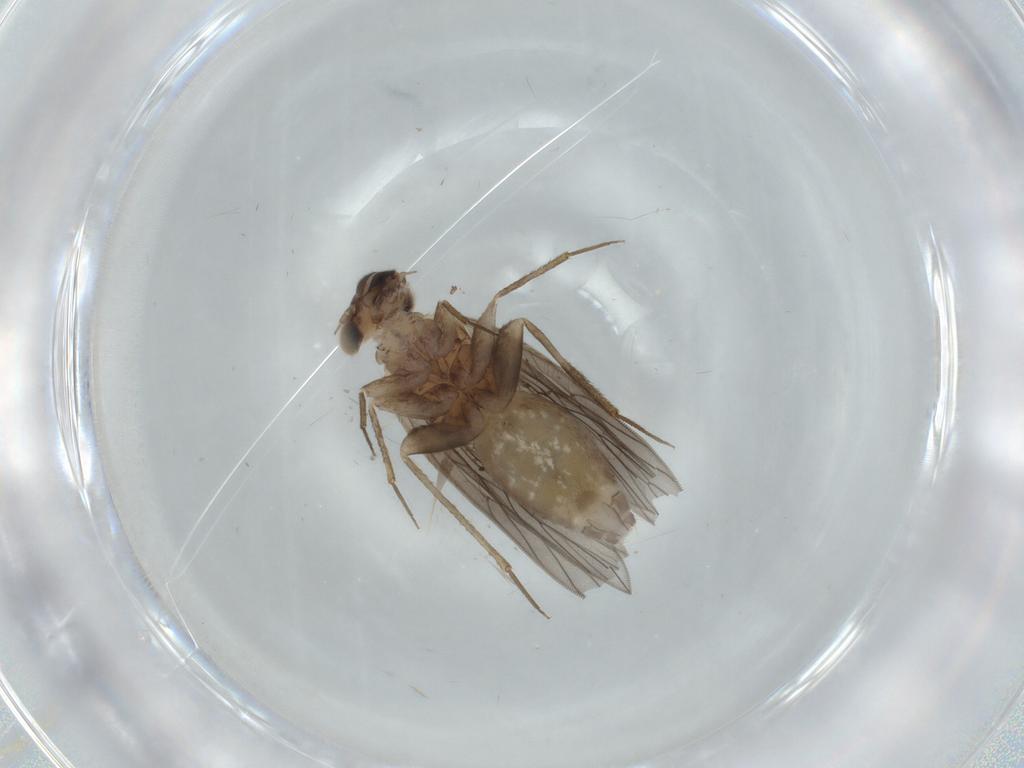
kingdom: Animalia
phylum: Arthropoda
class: Insecta
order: Psocodea
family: Lepidopsocidae
